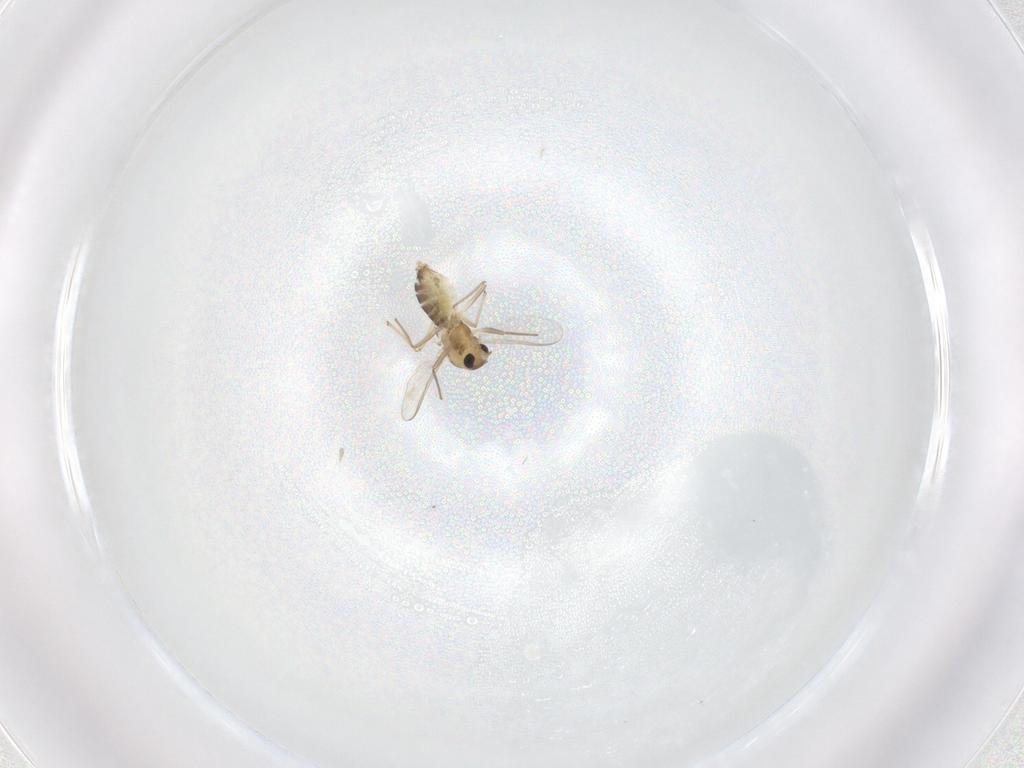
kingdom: Animalia
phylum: Arthropoda
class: Insecta
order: Diptera
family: Chironomidae
